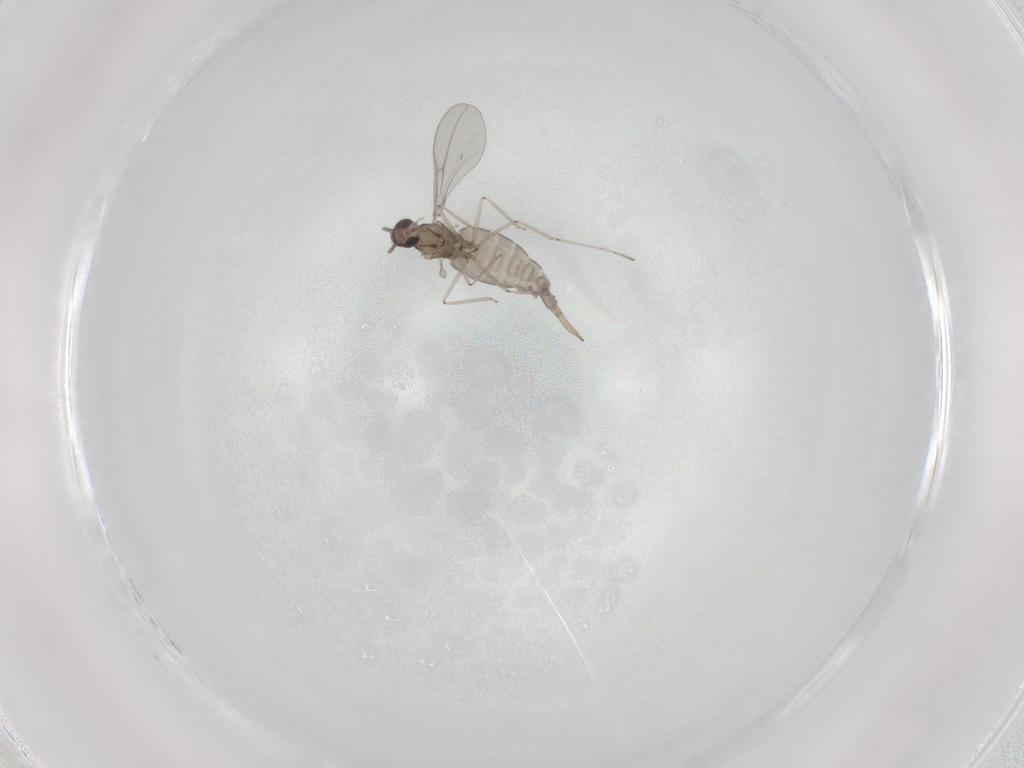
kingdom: Animalia
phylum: Arthropoda
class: Insecta
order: Diptera
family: Cecidomyiidae
